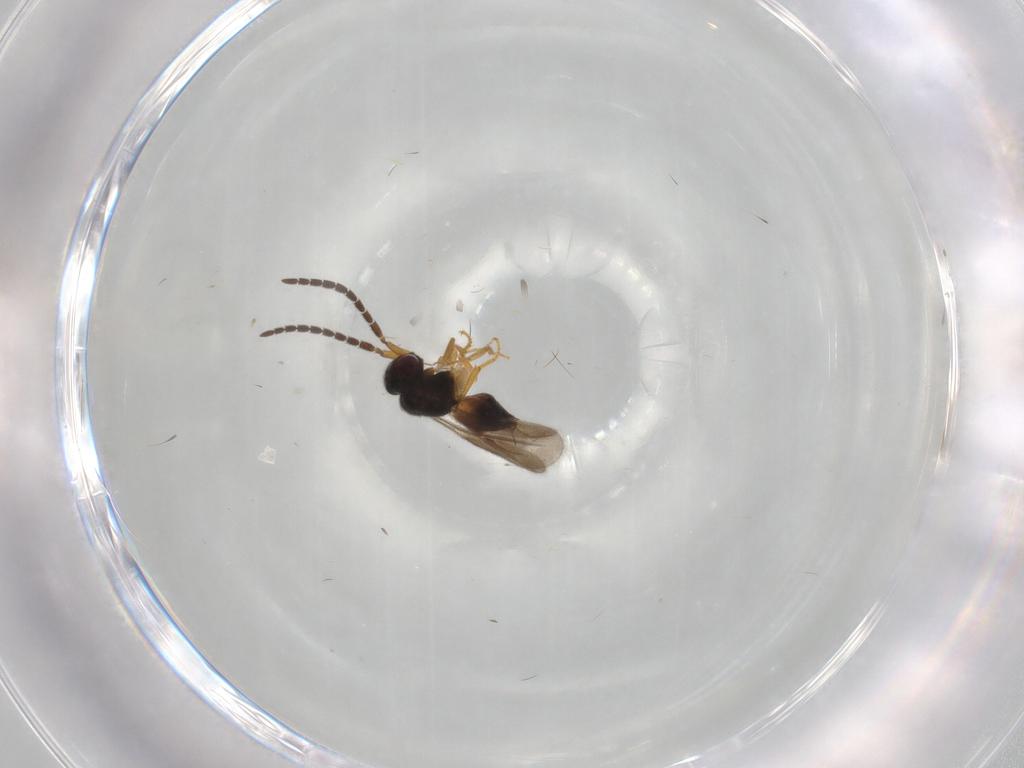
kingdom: Animalia
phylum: Arthropoda
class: Insecta
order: Hymenoptera
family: Ceraphronidae
